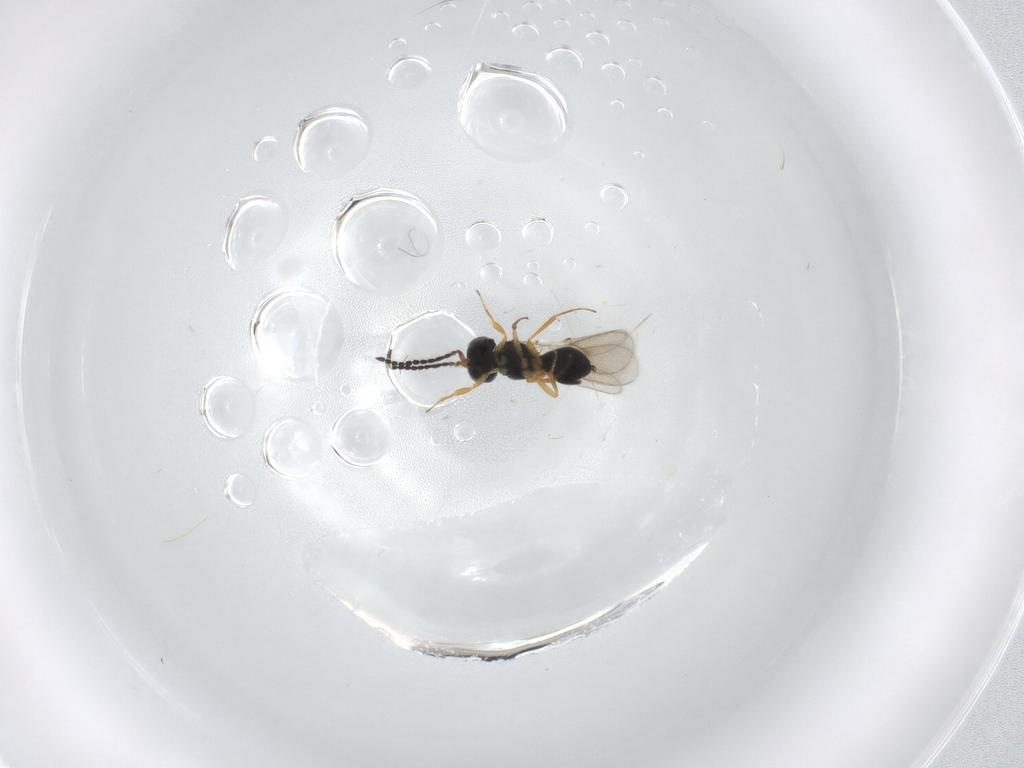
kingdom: Animalia
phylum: Arthropoda
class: Insecta
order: Hymenoptera
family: Scelionidae
